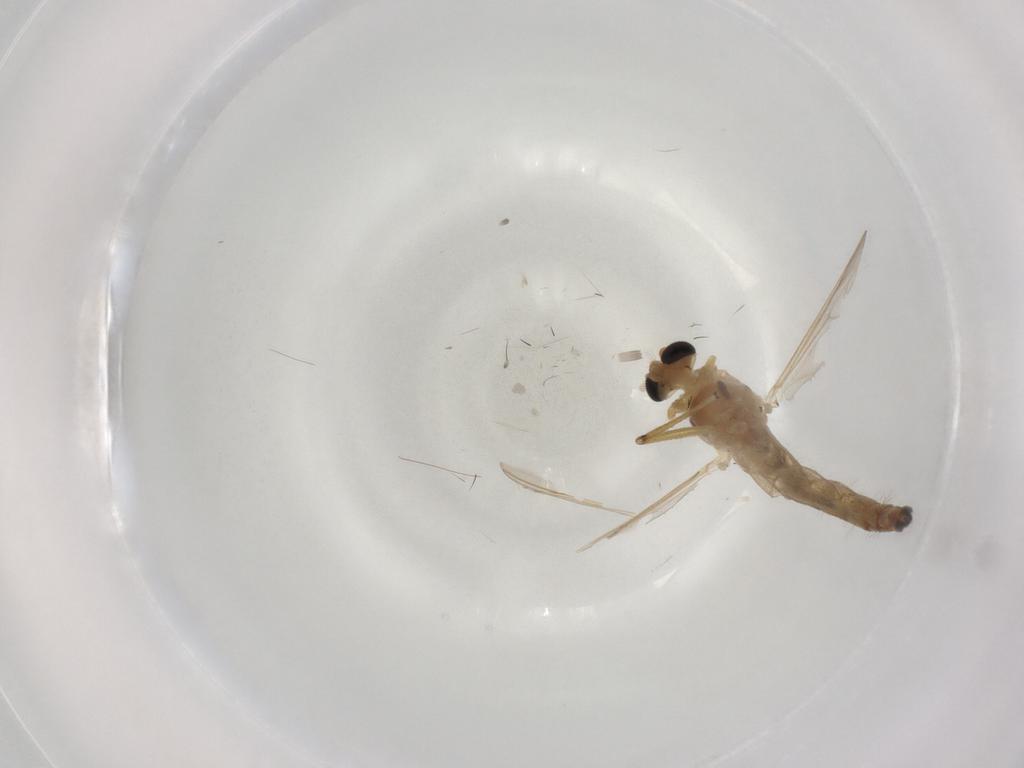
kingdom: Animalia
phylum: Arthropoda
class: Insecta
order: Diptera
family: Chironomidae
